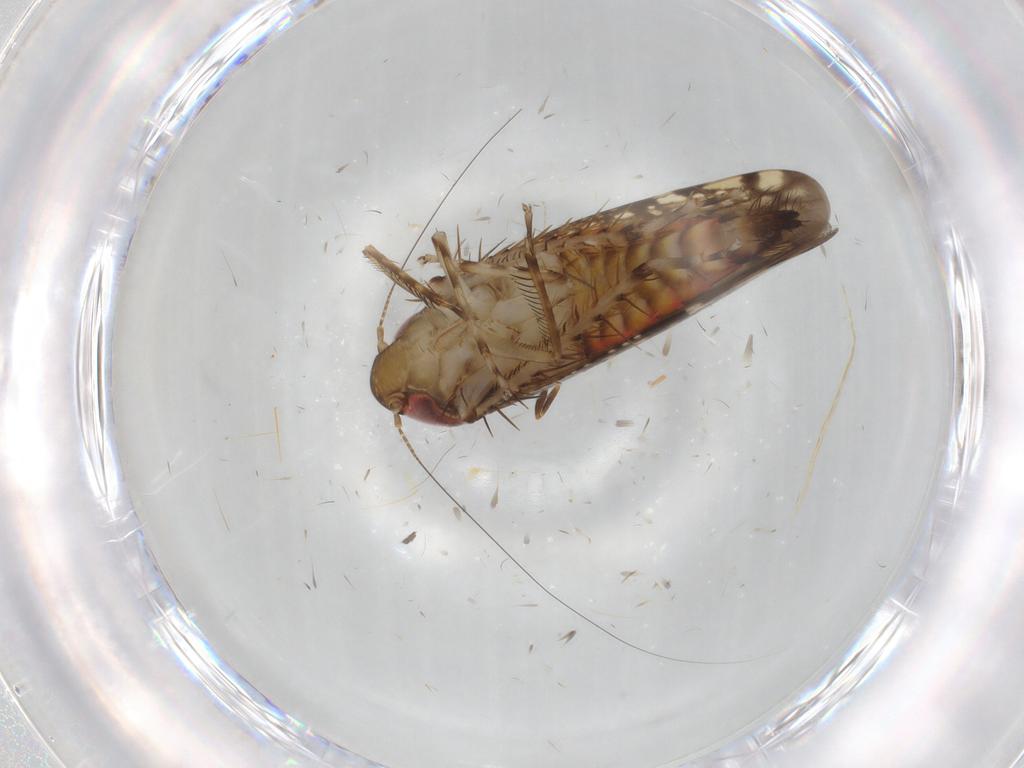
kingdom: Animalia
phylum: Arthropoda
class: Insecta
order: Hemiptera
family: Cicadellidae
